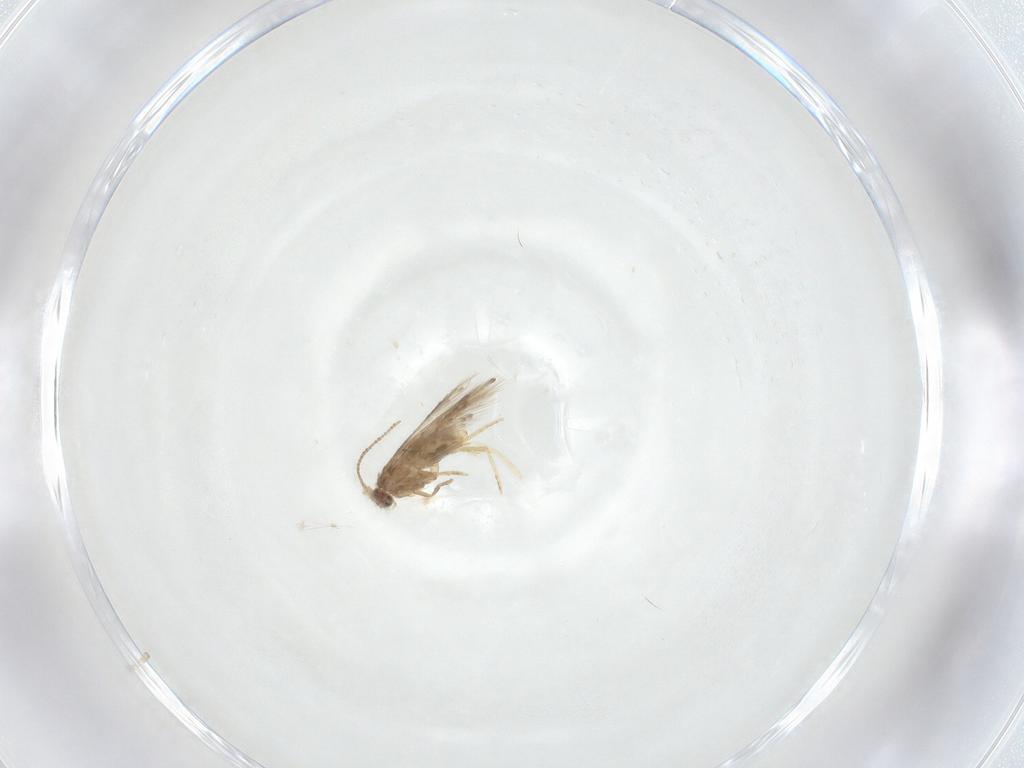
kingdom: Animalia
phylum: Arthropoda
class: Insecta
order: Lepidoptera
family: Nepticulidae
